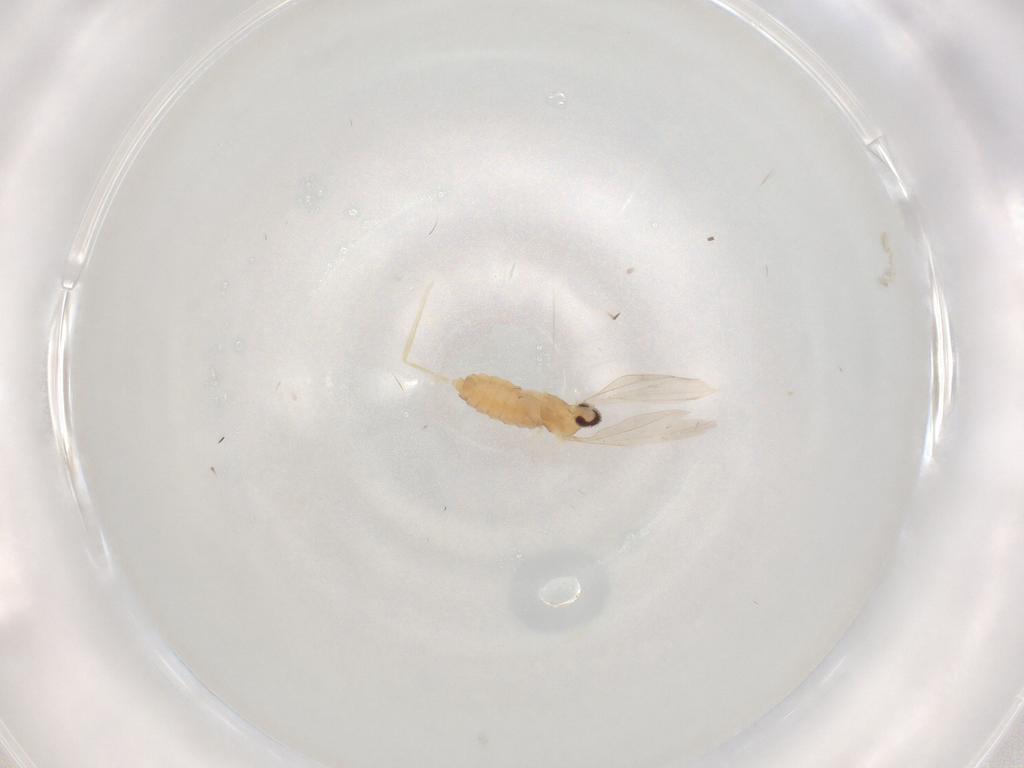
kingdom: Animalia
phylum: Arthropoda
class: Insecta
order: Diptera
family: Cecidomyiidae
